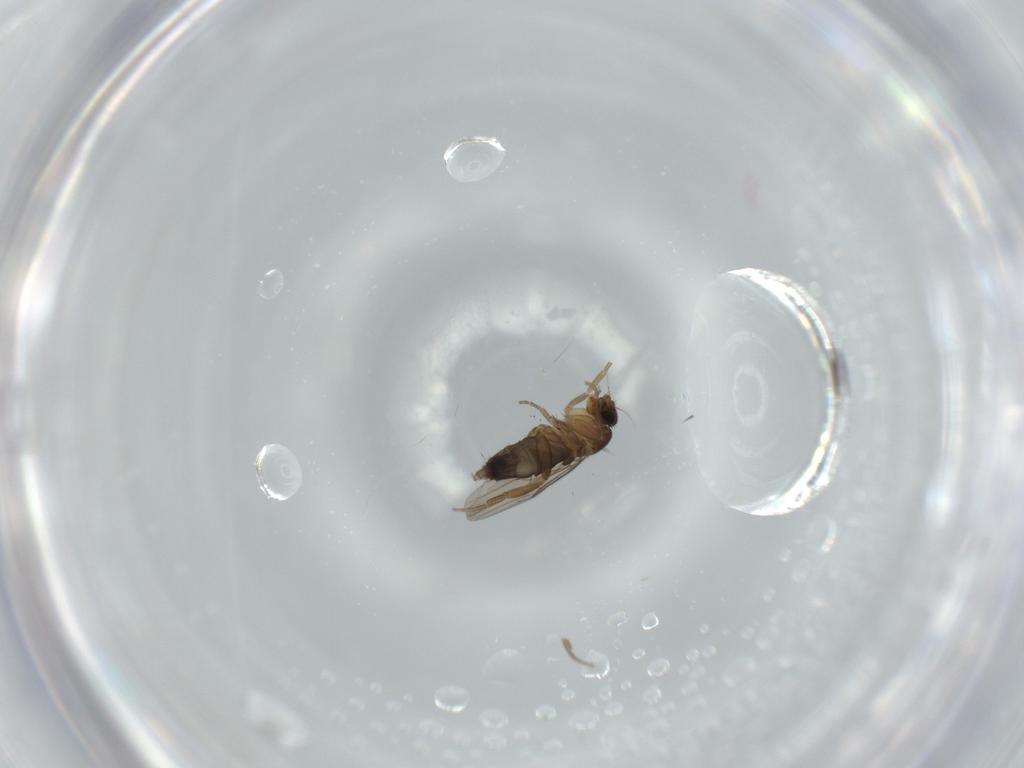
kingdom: Animalia
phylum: Arthropoda
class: Insecta
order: Diptera
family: Phoridae
